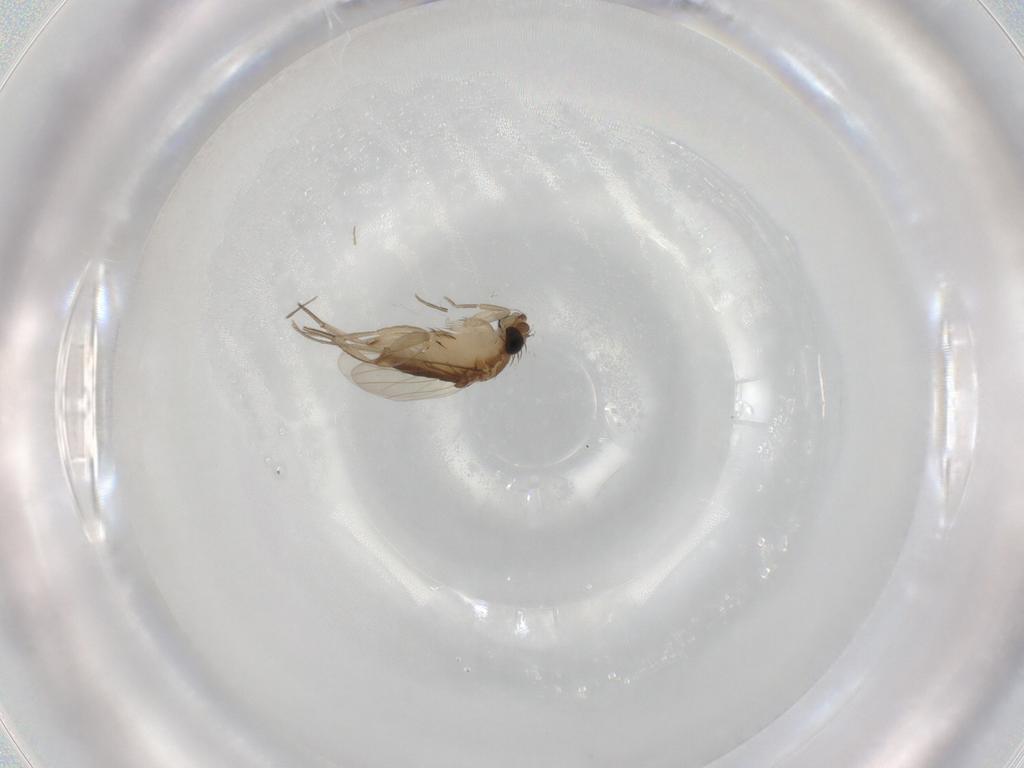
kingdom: Animalia
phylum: Arthropoda
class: Insecta
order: Diptera
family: Phoridae
